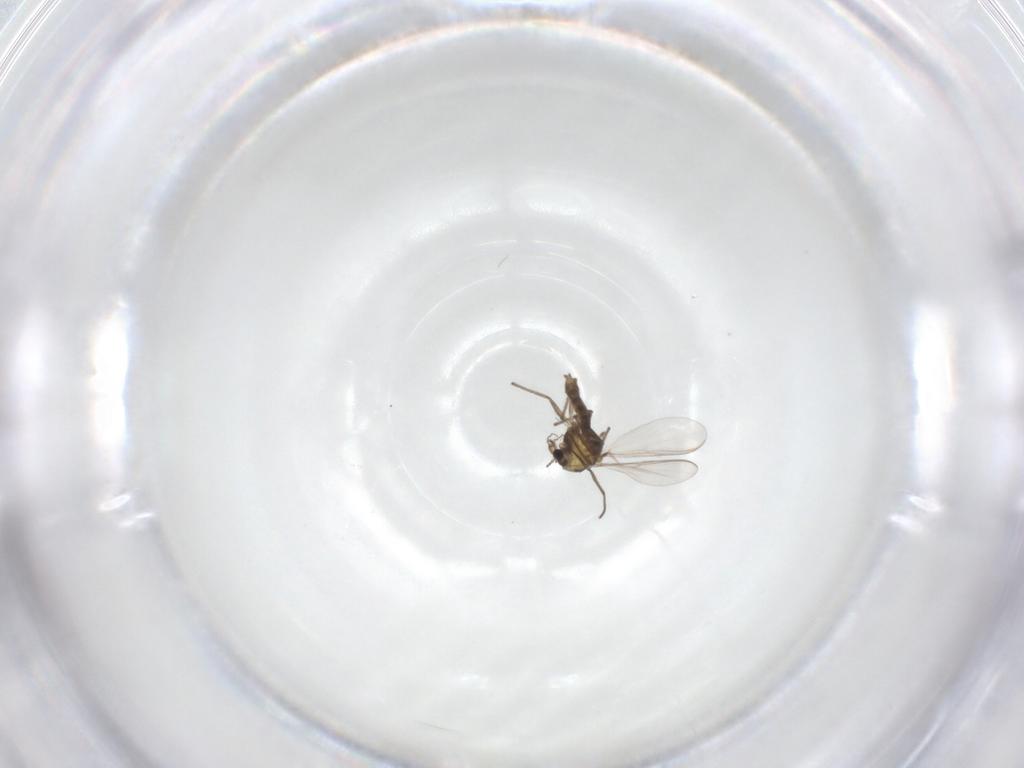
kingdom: Animalia
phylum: Arthropoda
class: Insecta
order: Diptera
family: Chironomidae
